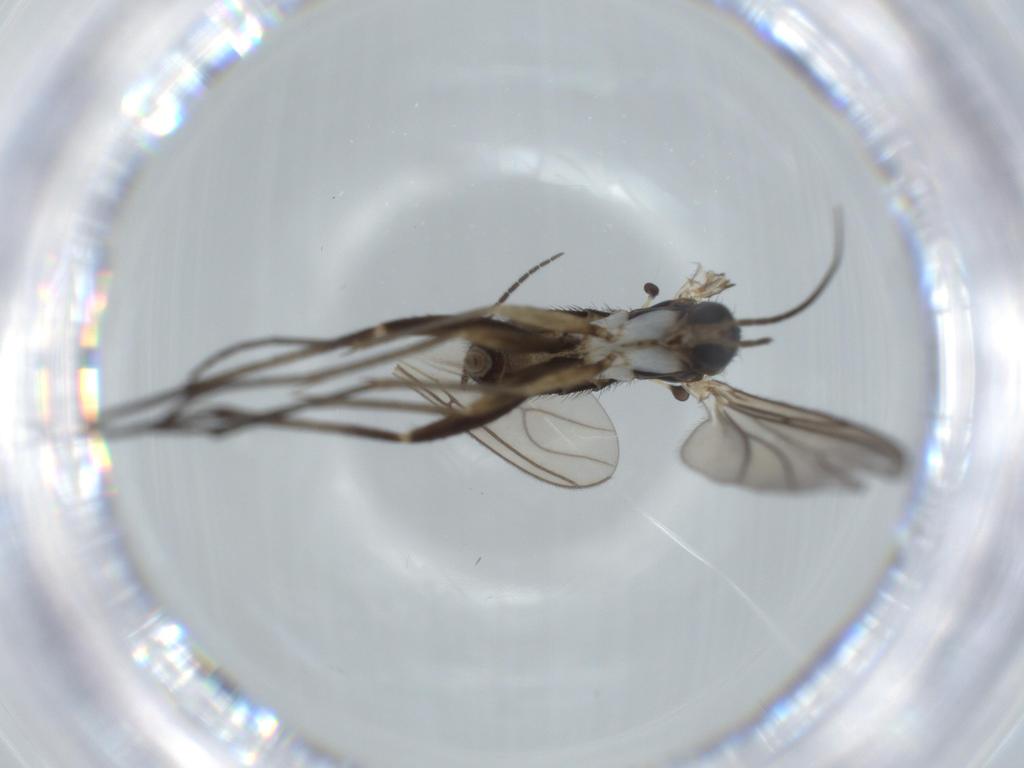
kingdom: Animalia
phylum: Arthropoda
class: Insecta
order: Diptera
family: Sciaridae
